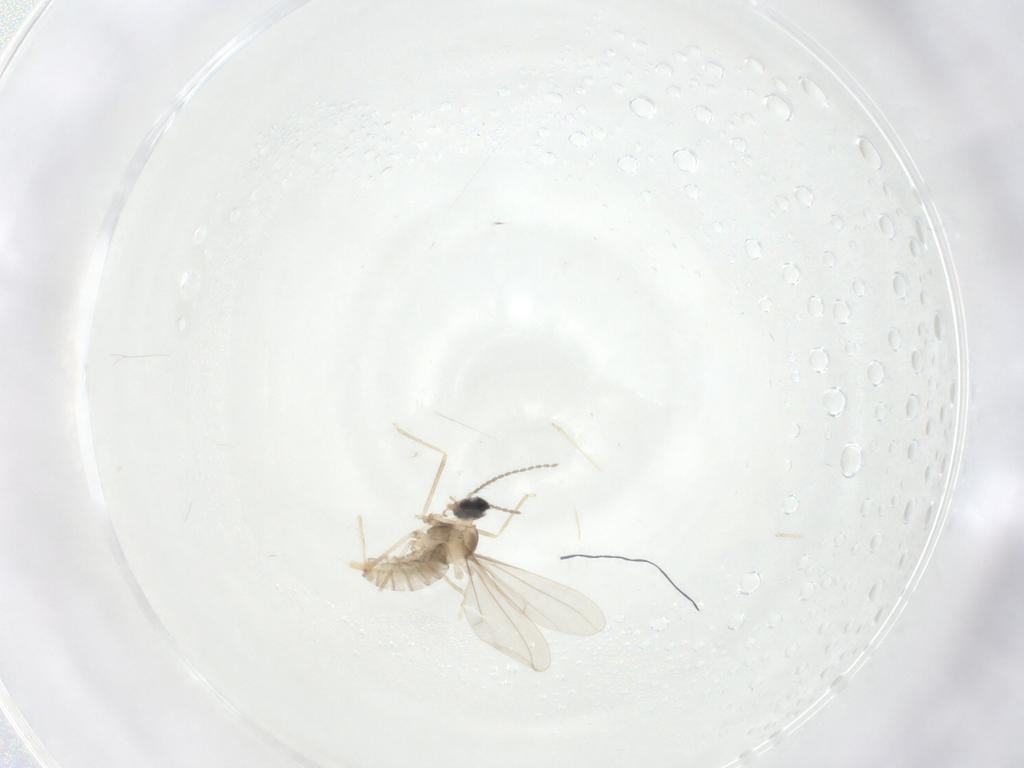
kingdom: Animalia
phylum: Arthropoda
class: Insecta
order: Diptera
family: Cecidomyiidae
